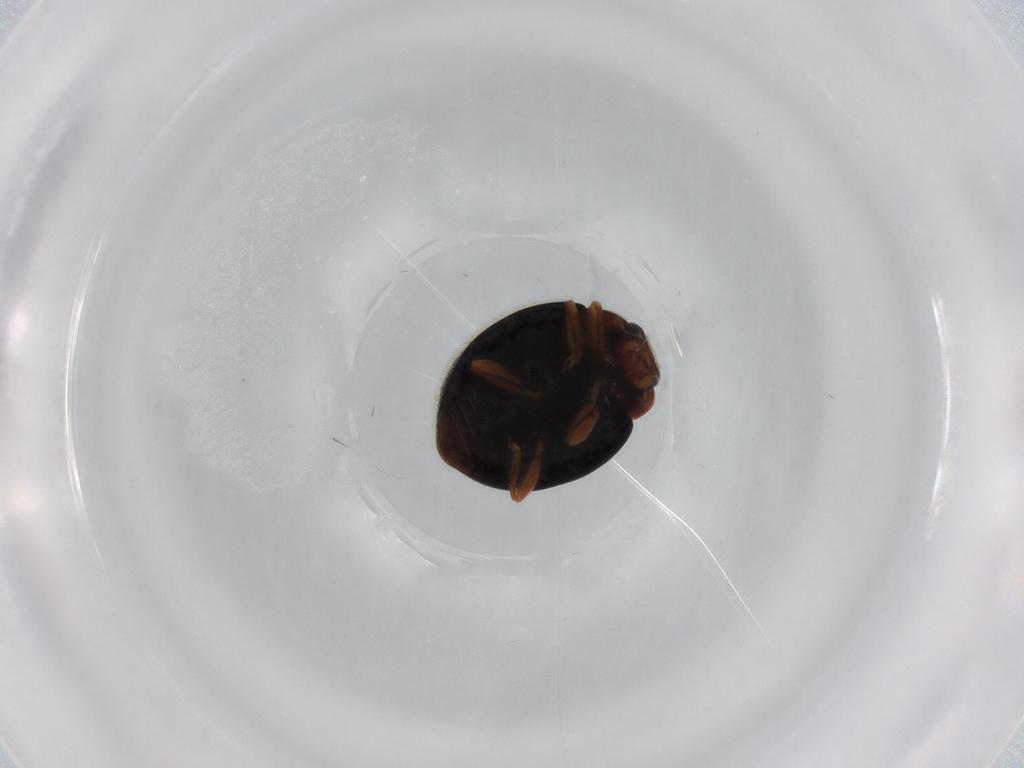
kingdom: Animalia
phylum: Arthropoda
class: Insecta
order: Coleoptera
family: Coccinellidae
